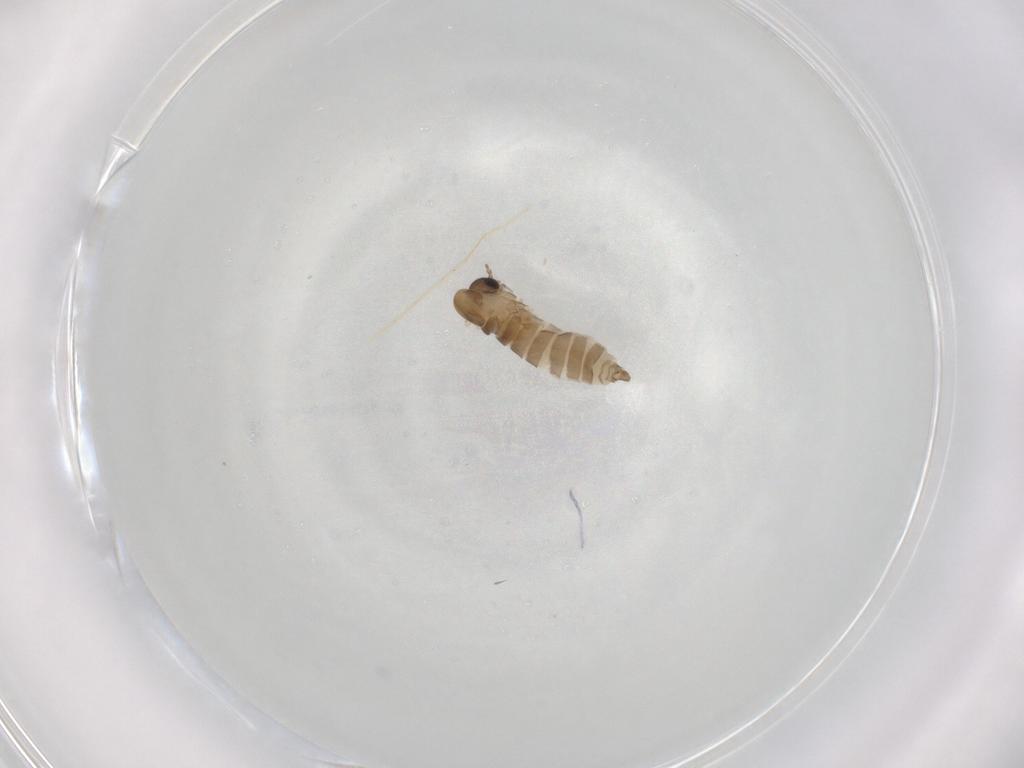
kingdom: Animalia
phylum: Arthropoda
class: Insecta
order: Diptera
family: Psychodidae
